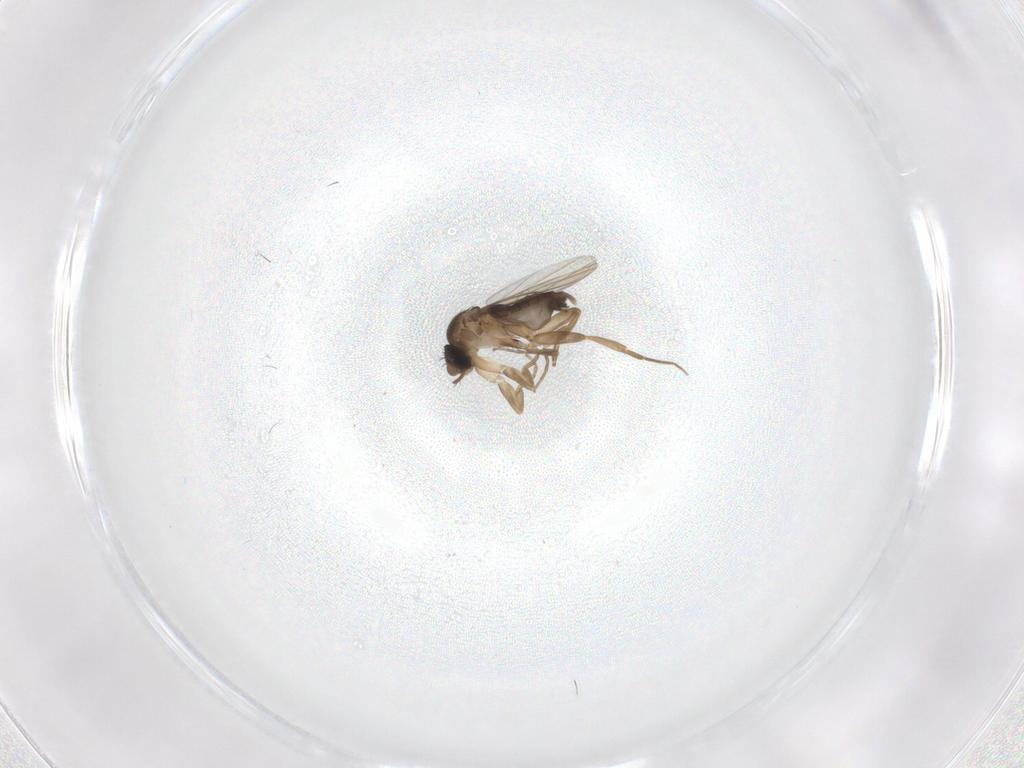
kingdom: Animalia
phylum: Arthropoda
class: Insecta
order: Diptera
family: Phoridae
